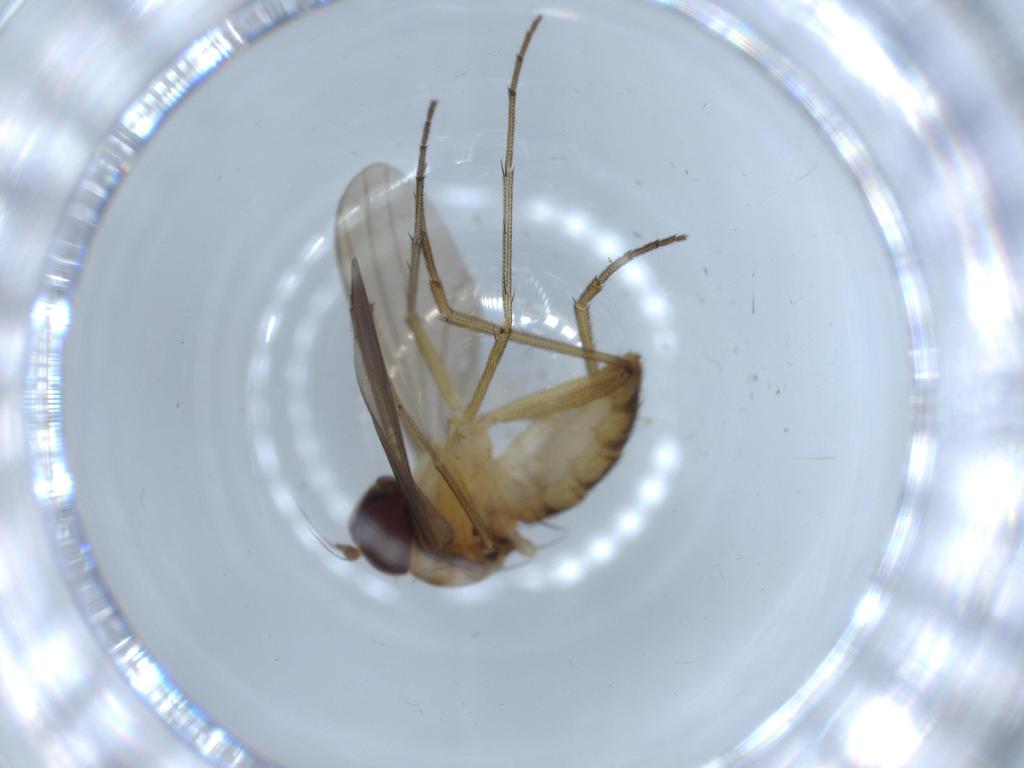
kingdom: Animalia
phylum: Arthropoda
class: Insecta
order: Diptera
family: Dolichopodidae
